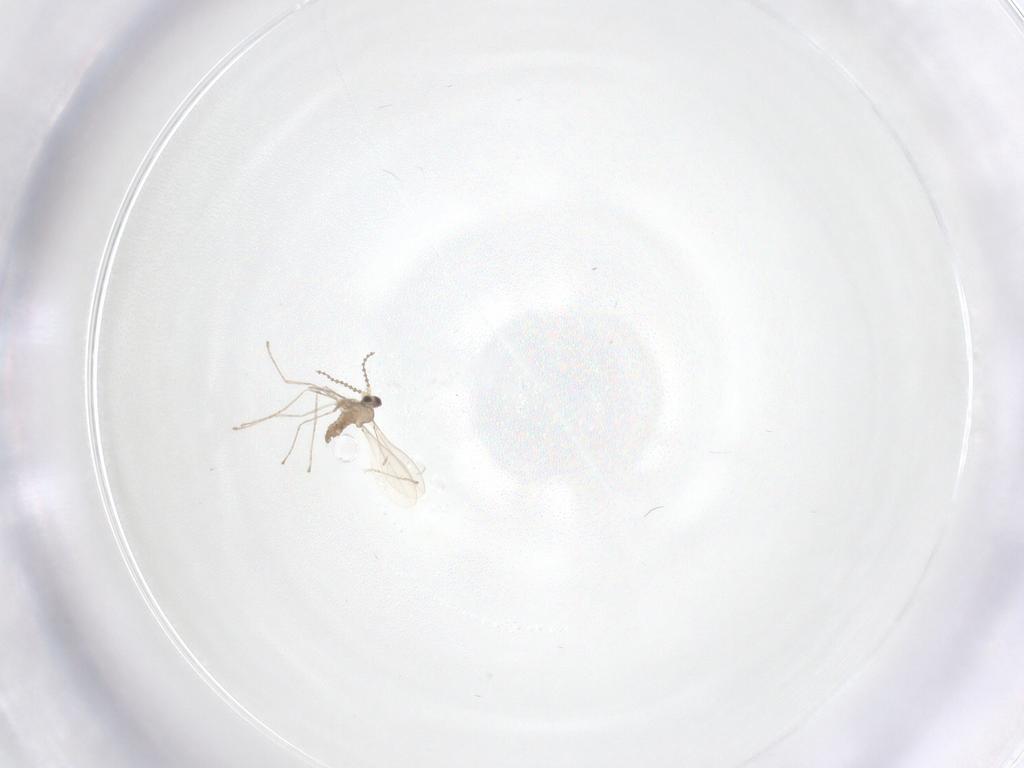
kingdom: Animalia
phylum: Arthropoda
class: Insecta
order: Diptera
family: Cecidomyiidae
